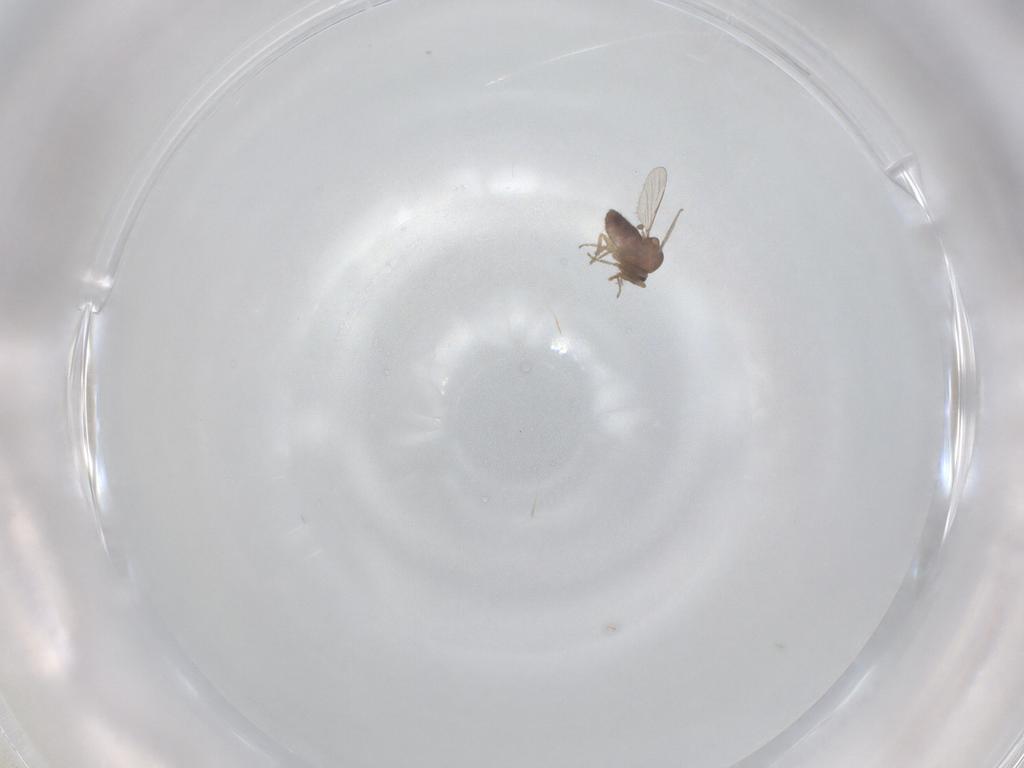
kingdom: Animalia
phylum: Arthropoda
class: Insecta
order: Diptera
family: Ceratopogonidae
